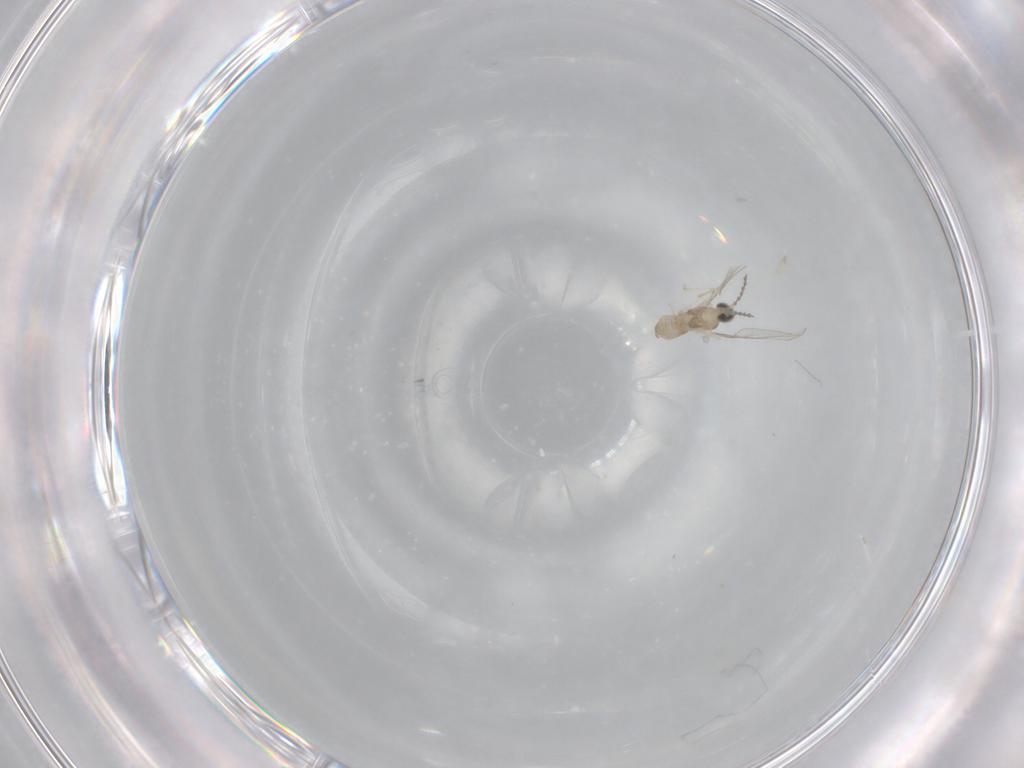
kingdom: Animalia
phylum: Arthropoda
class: Insecta
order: Diptera
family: Cecidomyiidae
